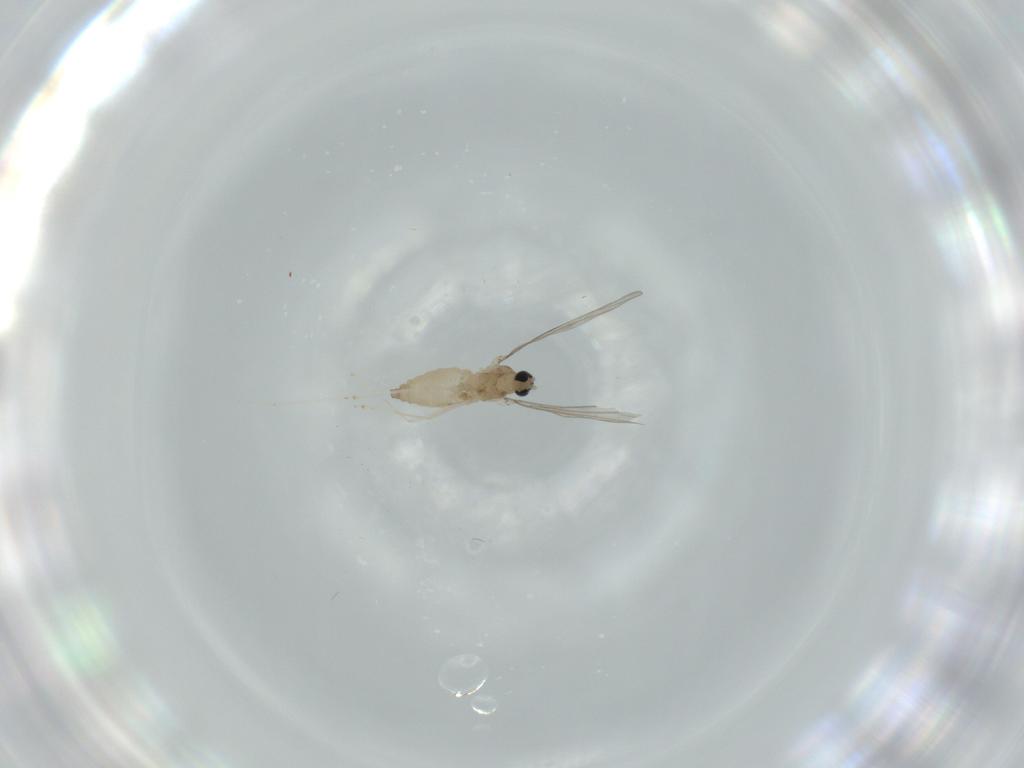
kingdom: Animalia
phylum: Arthropoda
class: Insecta
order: Diptera
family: Cecidomyiidae
